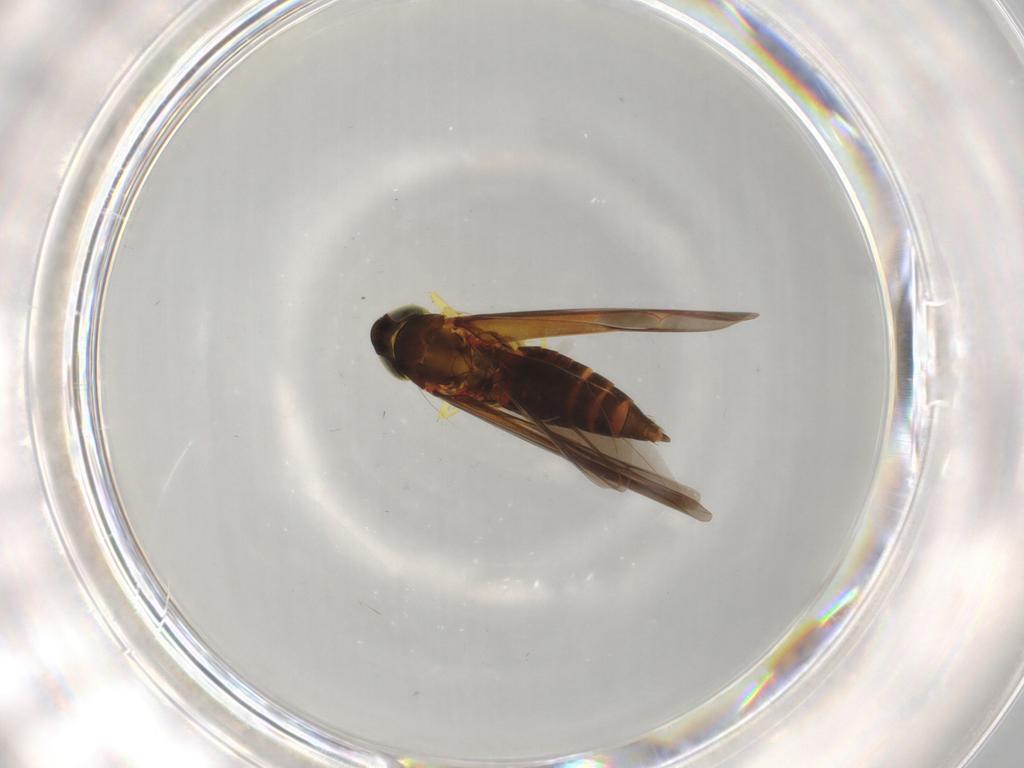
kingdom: Animalia
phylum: Arthropoda
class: Insecta
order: Hemiptera
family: Cicadellidae
